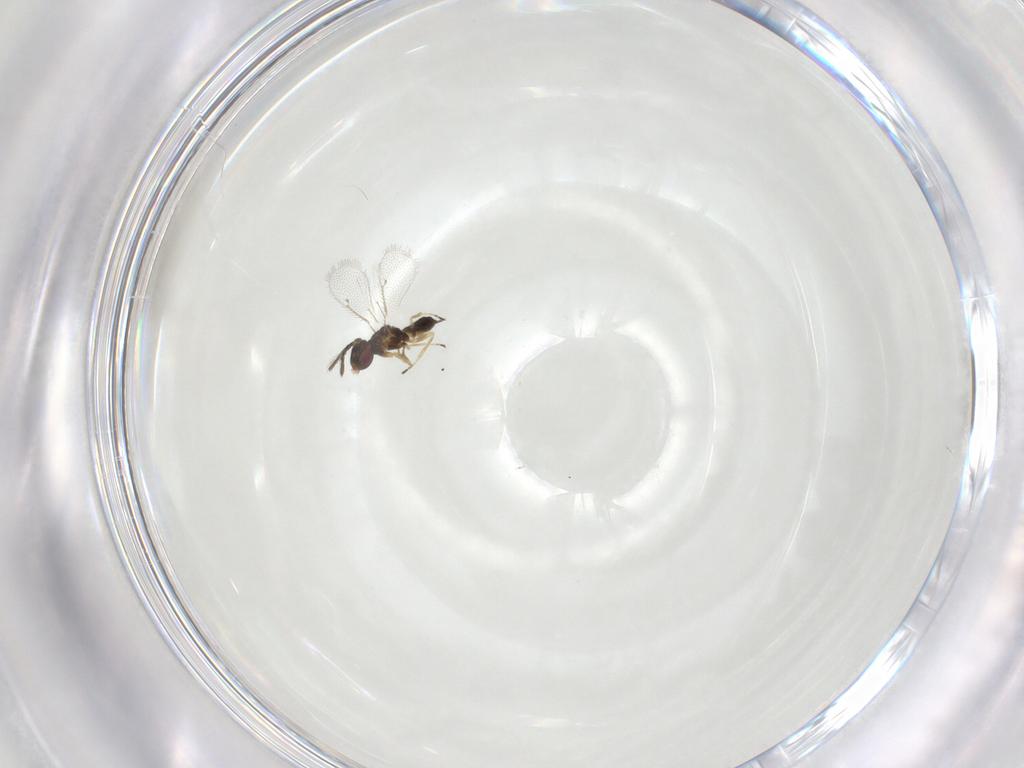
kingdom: Animalia
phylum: Arthropoda
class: Insecta
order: Hymenoptera
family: Eulophidae
